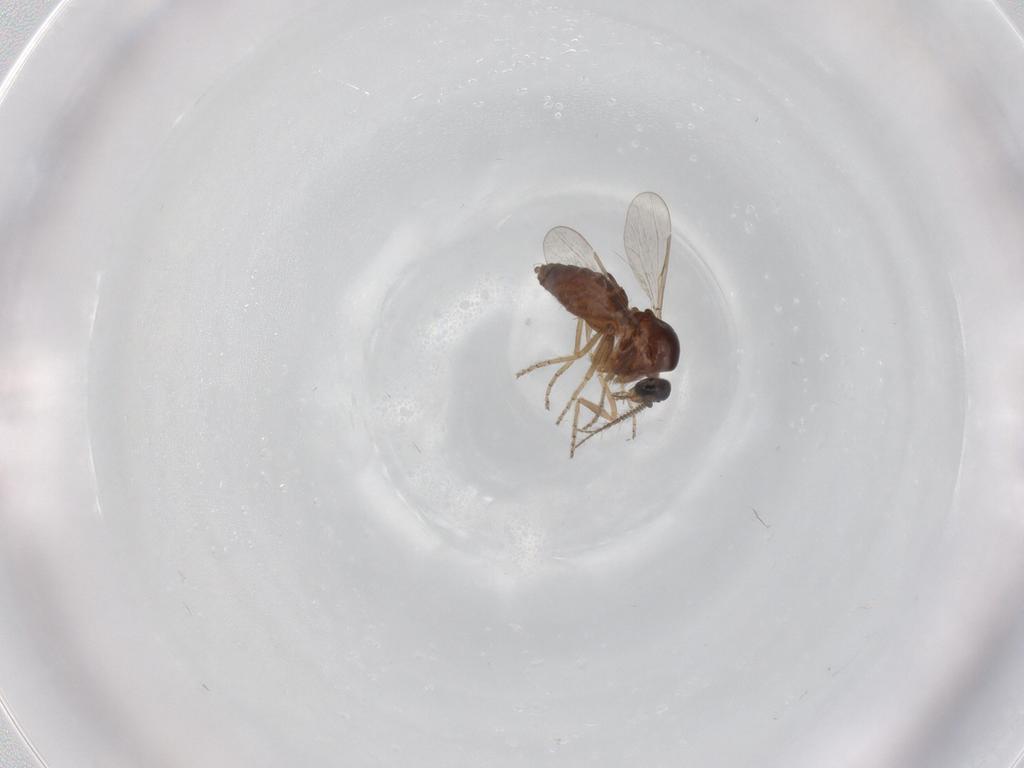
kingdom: Animalia
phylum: Arthropoda
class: Insecta
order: Diptera
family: Ceratopogonidae
